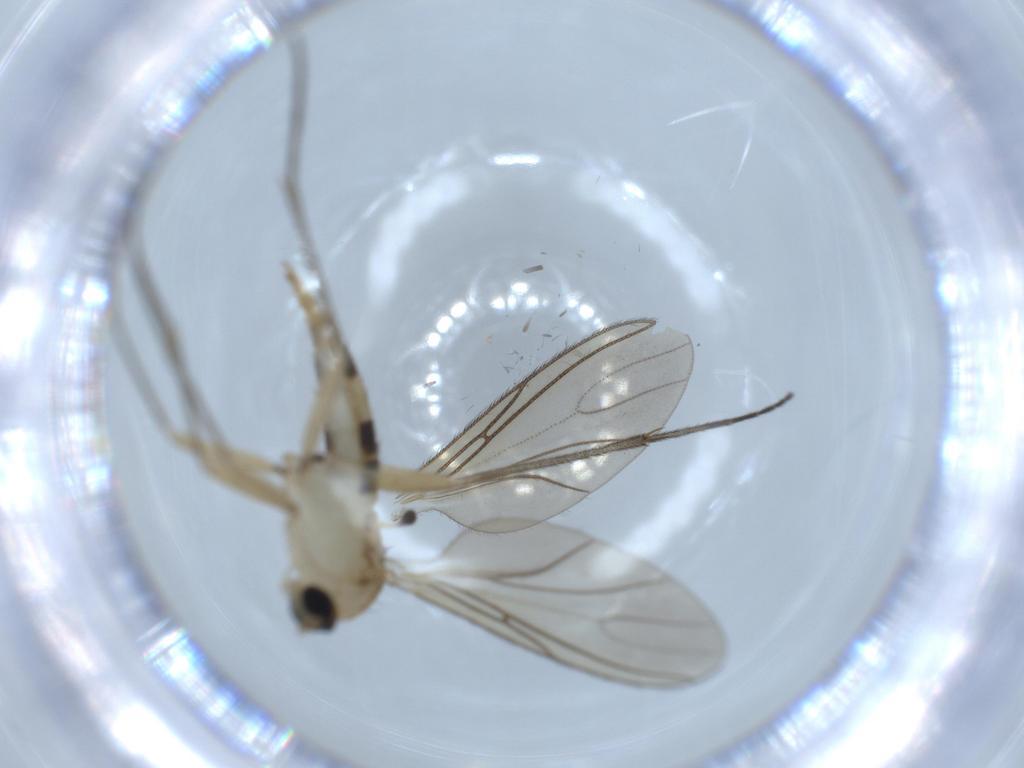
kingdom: Animalia
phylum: Arthropoda
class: Insecta
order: Diptera
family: Sciaridae
